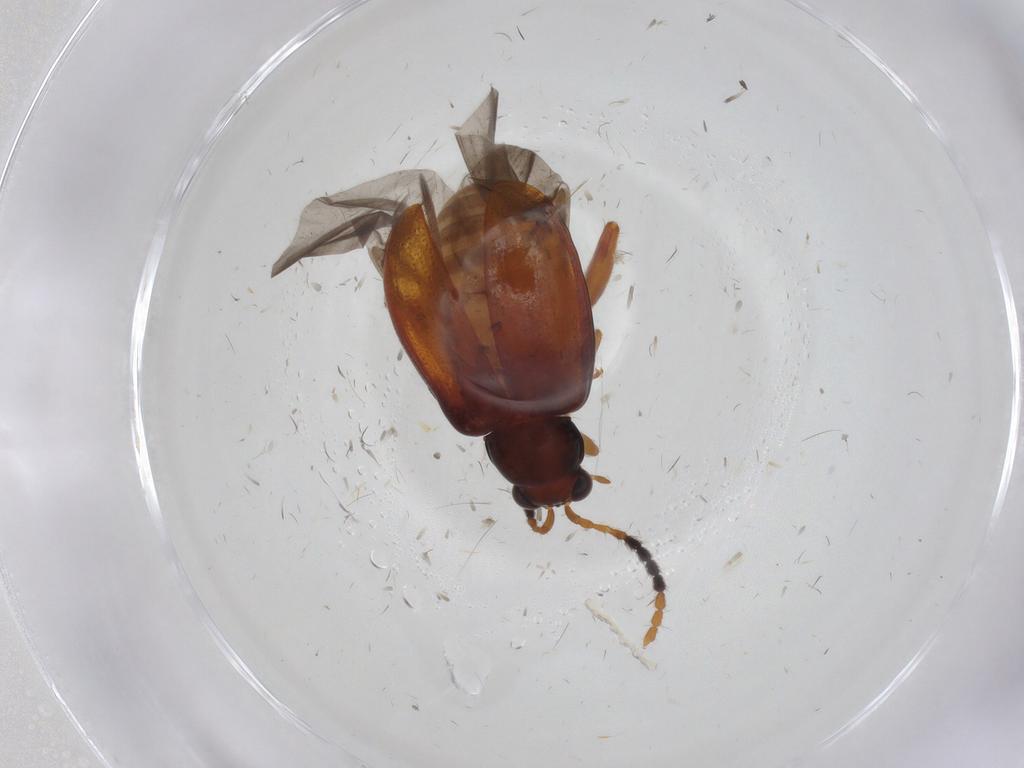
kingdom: Animalia
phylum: Arthropoda
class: Insecta
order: Coleoptera
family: Chrysomelidae
